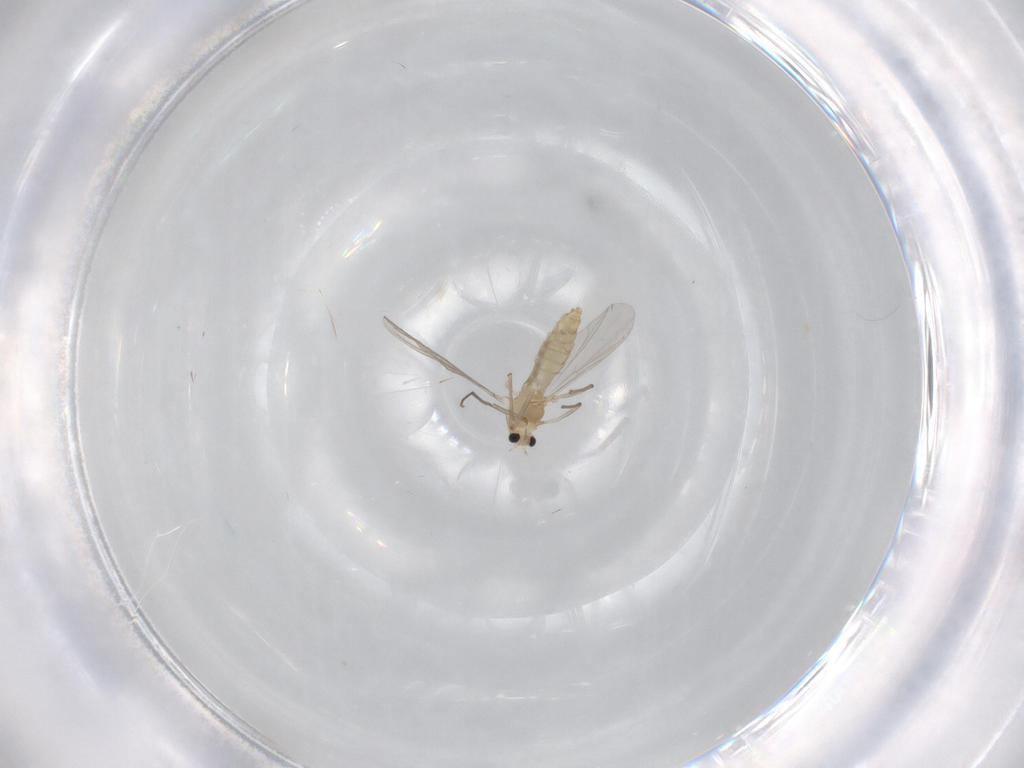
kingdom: Animalia
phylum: Arthropoda
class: Insecta
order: Diptera
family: Chironomidae
